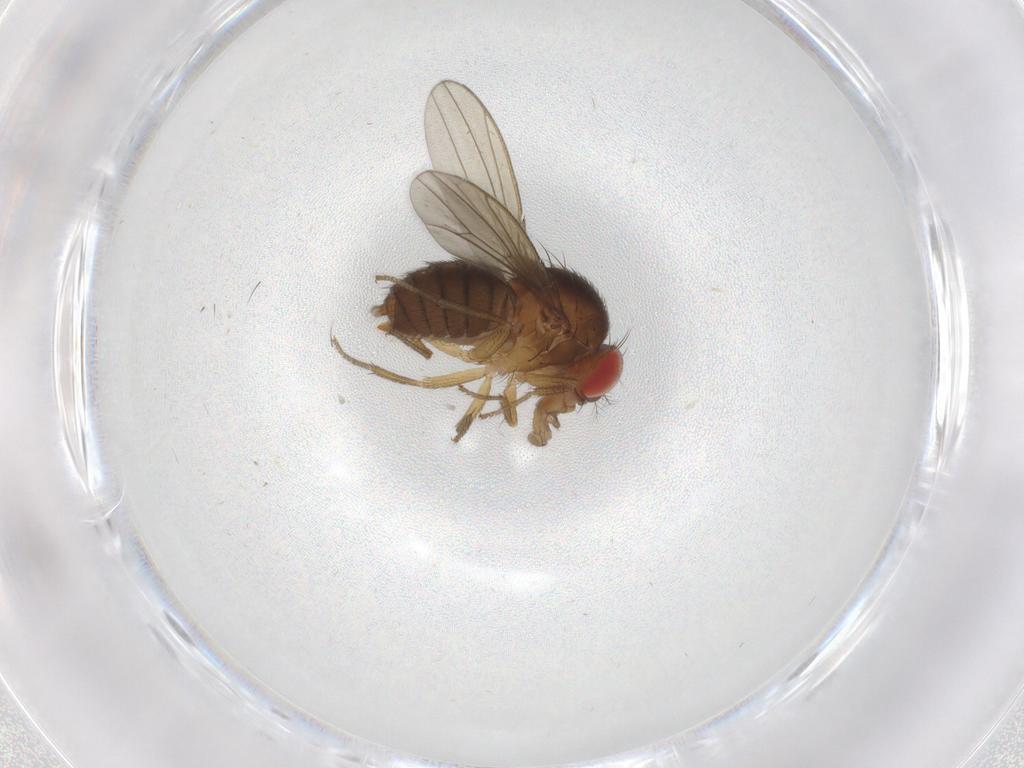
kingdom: Animalia
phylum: Arthropoda
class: Insecta
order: Diptera
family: Drosophilidae
